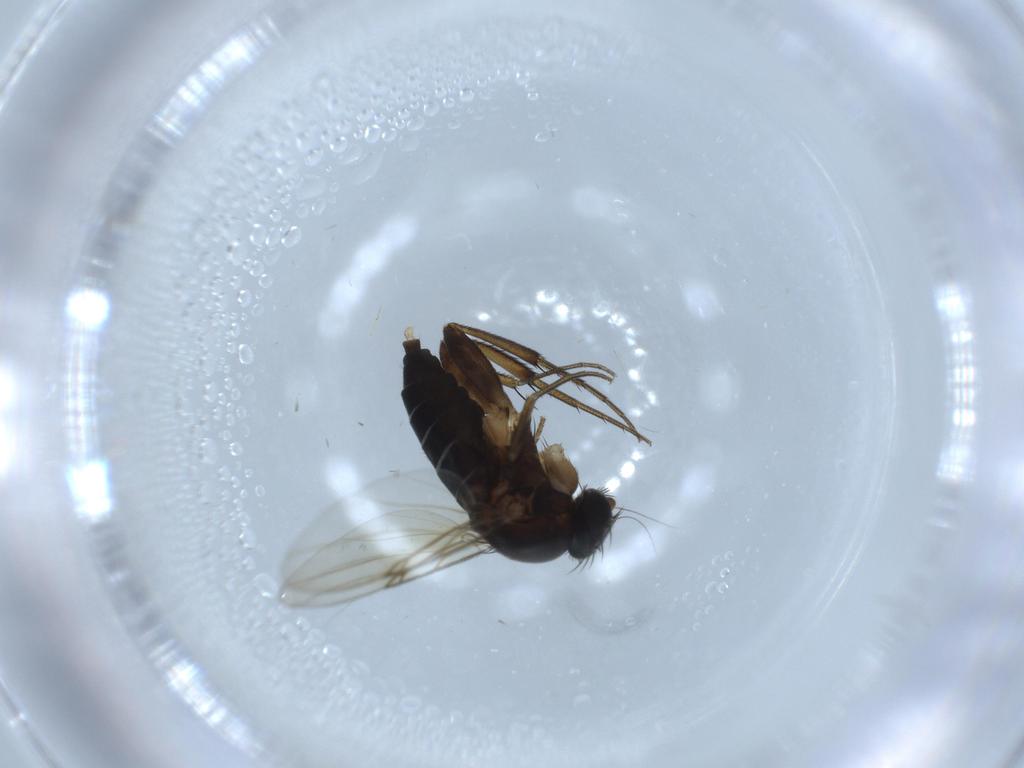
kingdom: Animalia
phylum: Arthropoda
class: Insecta
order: Diptera
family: Phoridae
